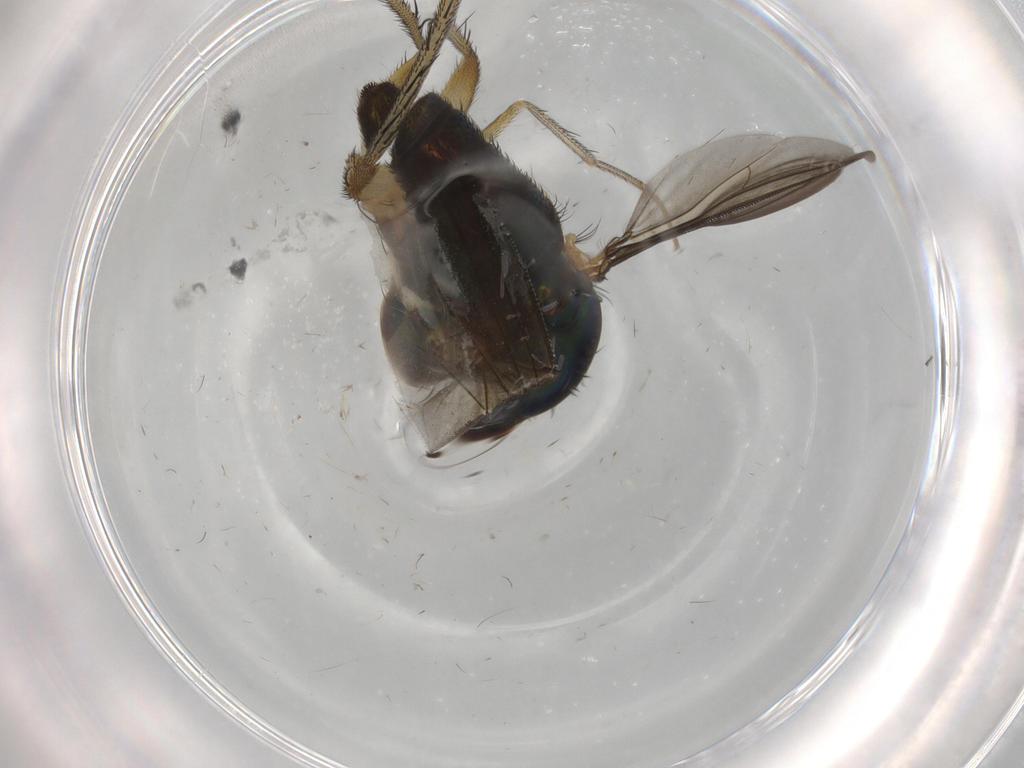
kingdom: Animalia
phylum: Arthropoda
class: Insecta
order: Diptera
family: Dolichopodidae
